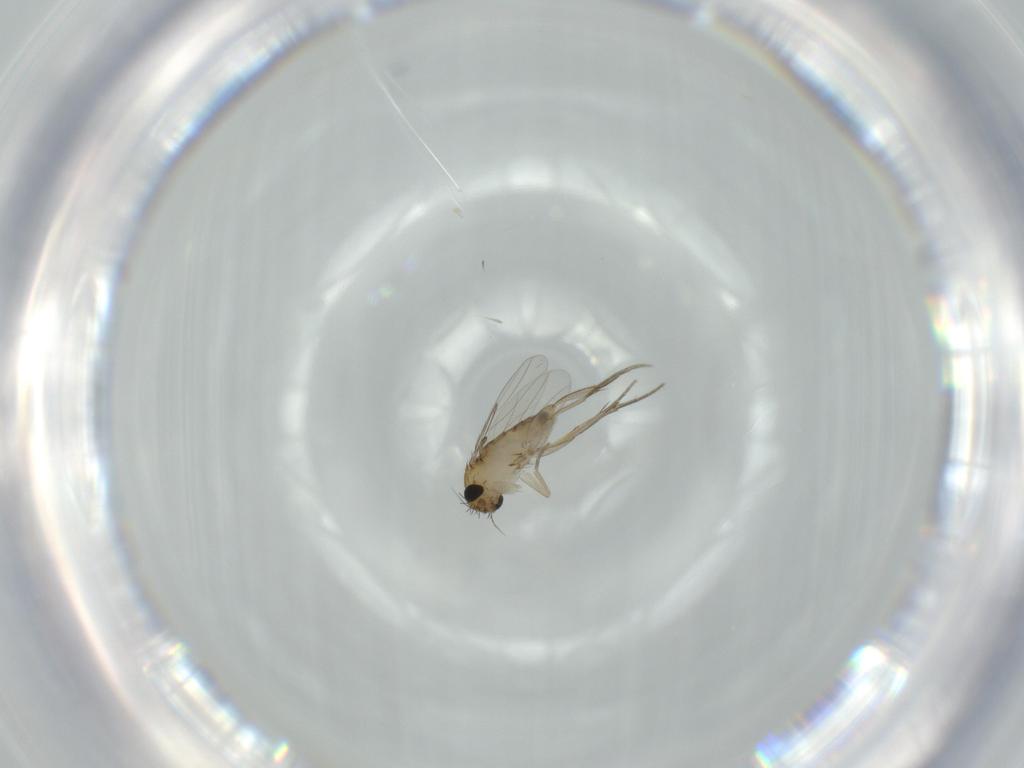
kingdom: Animalia
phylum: Arthropoda
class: Insecta
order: Diptera
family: Phoridae
